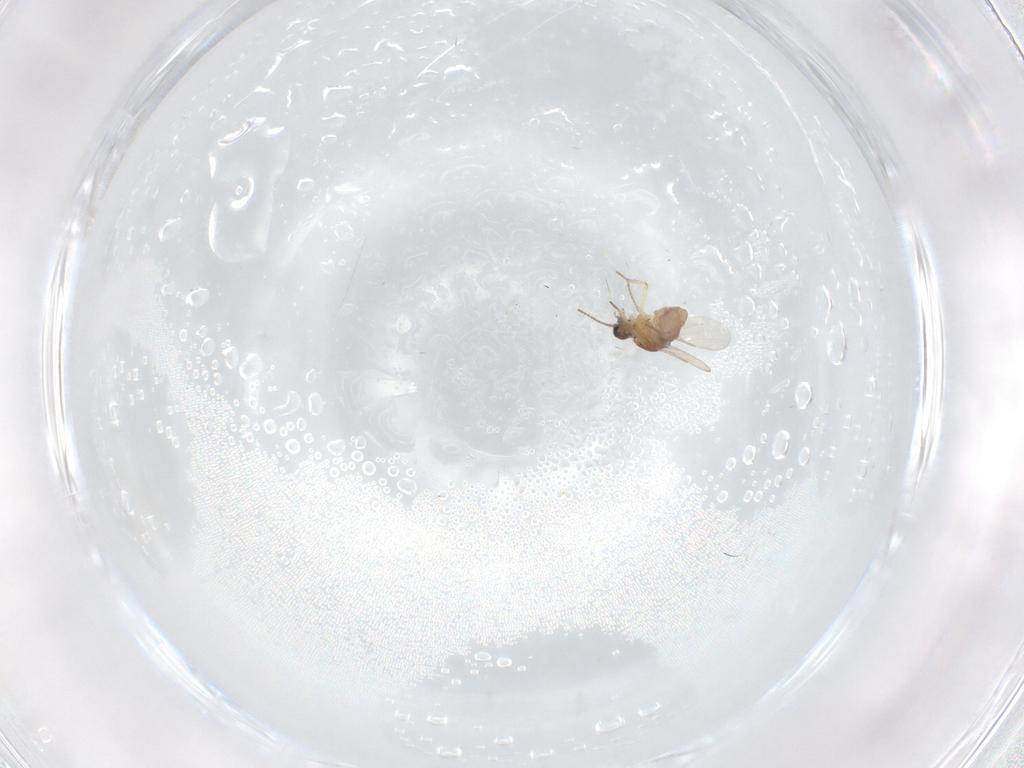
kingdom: Animalia
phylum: Arthropoda
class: Insecta
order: Diptera
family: Ceratopogonidae
